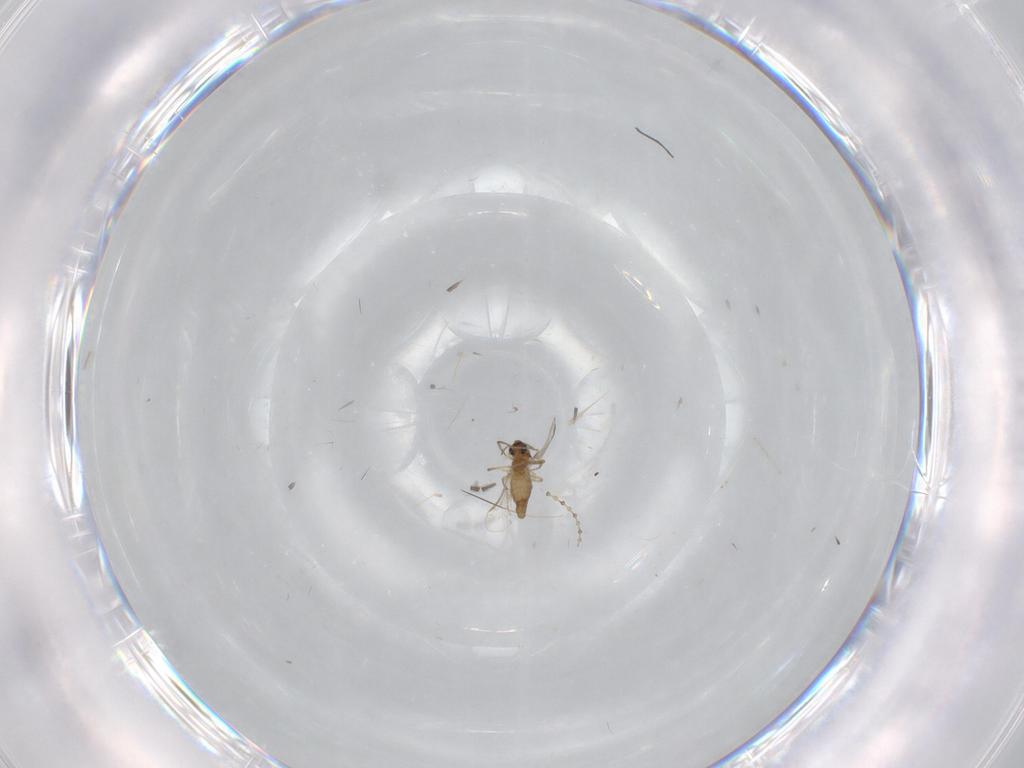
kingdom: Animalia
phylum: Arthropoda
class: Insecta
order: Diptera
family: Chironomidae
